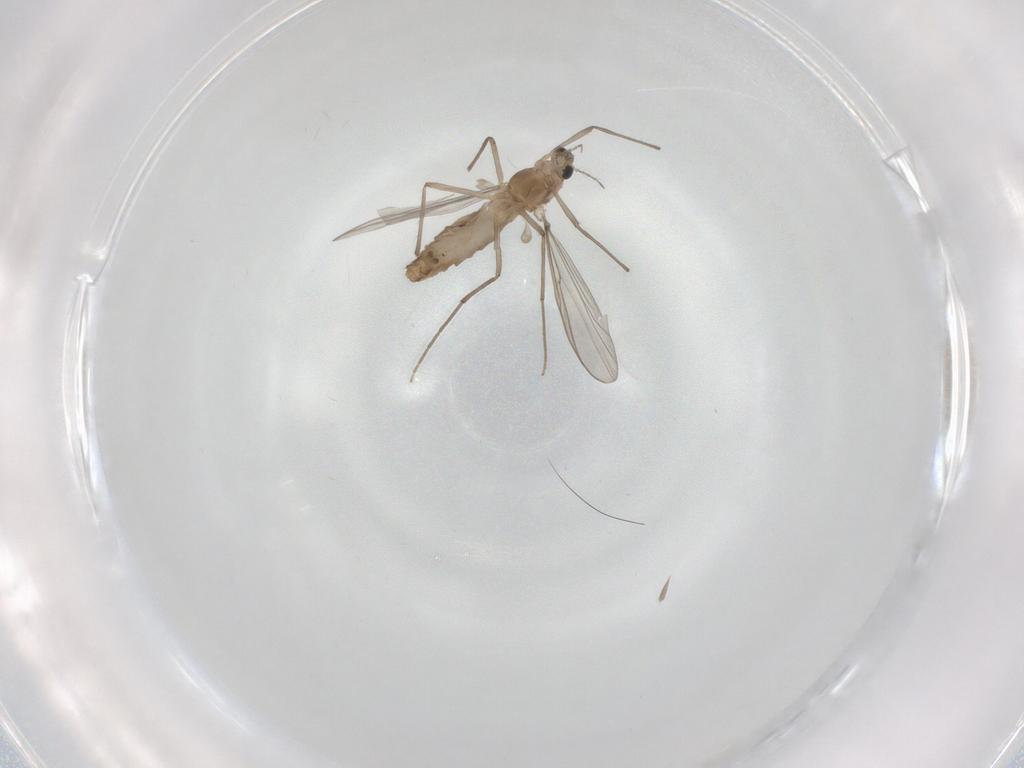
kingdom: Animalia
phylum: Arthropoda
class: Insecta
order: Diptera
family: Chironomidae
